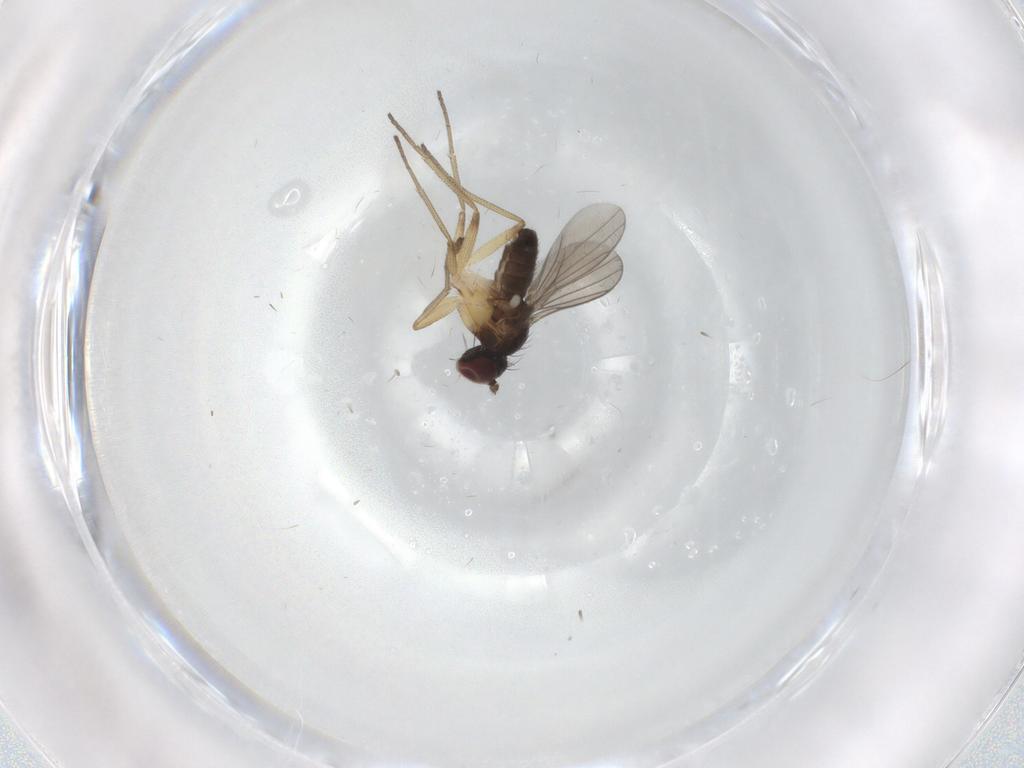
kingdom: Animalia
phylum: Arthropoda
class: Insecta
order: Diptera
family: Dolichopodidae
